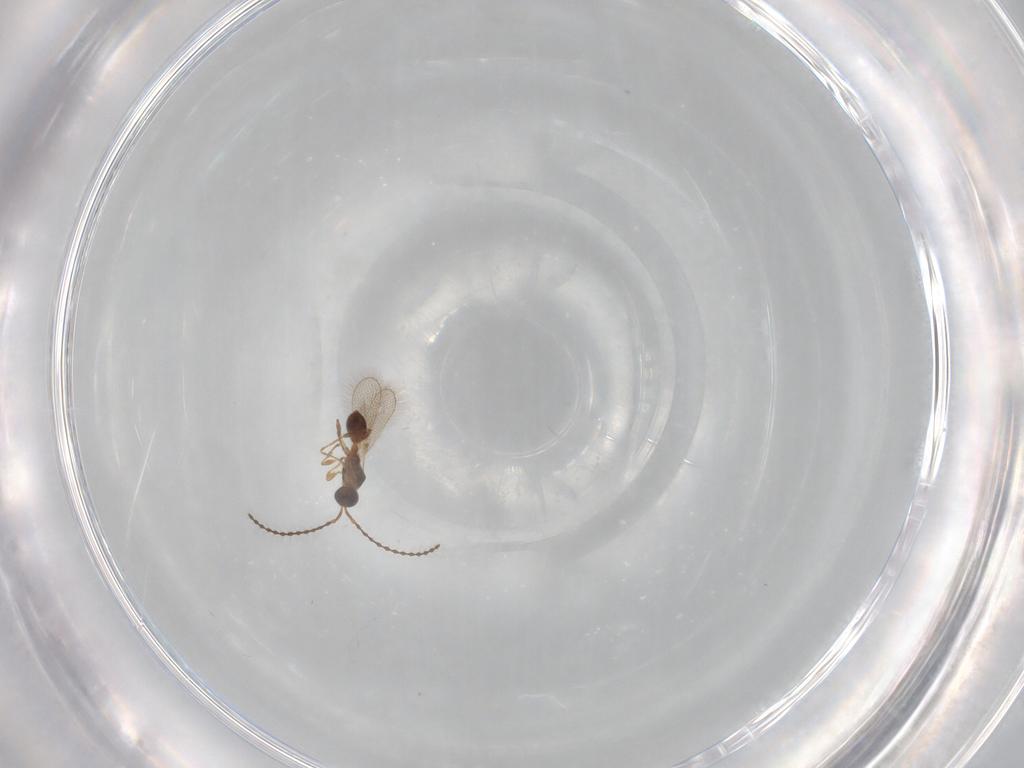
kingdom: Animalia
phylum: Arthropoda
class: Insecta
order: Hymenoptera
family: Diapriidae
